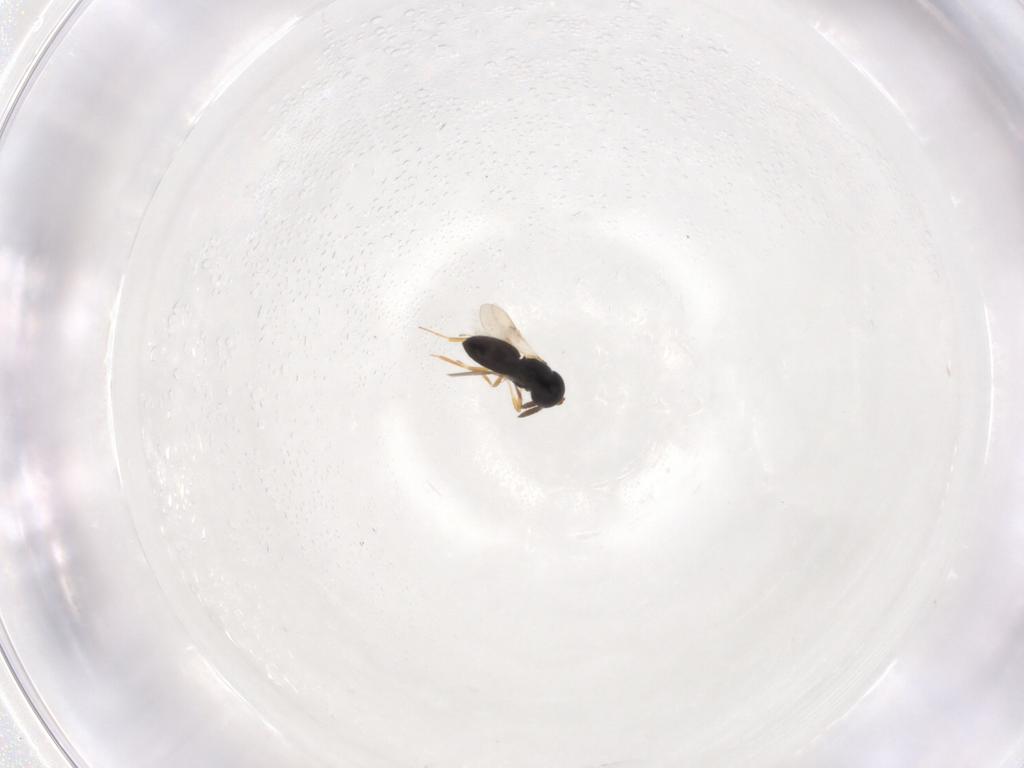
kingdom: Animalia
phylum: Arthropoda
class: Insecta
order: Hymenoptera
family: Scelionidae
